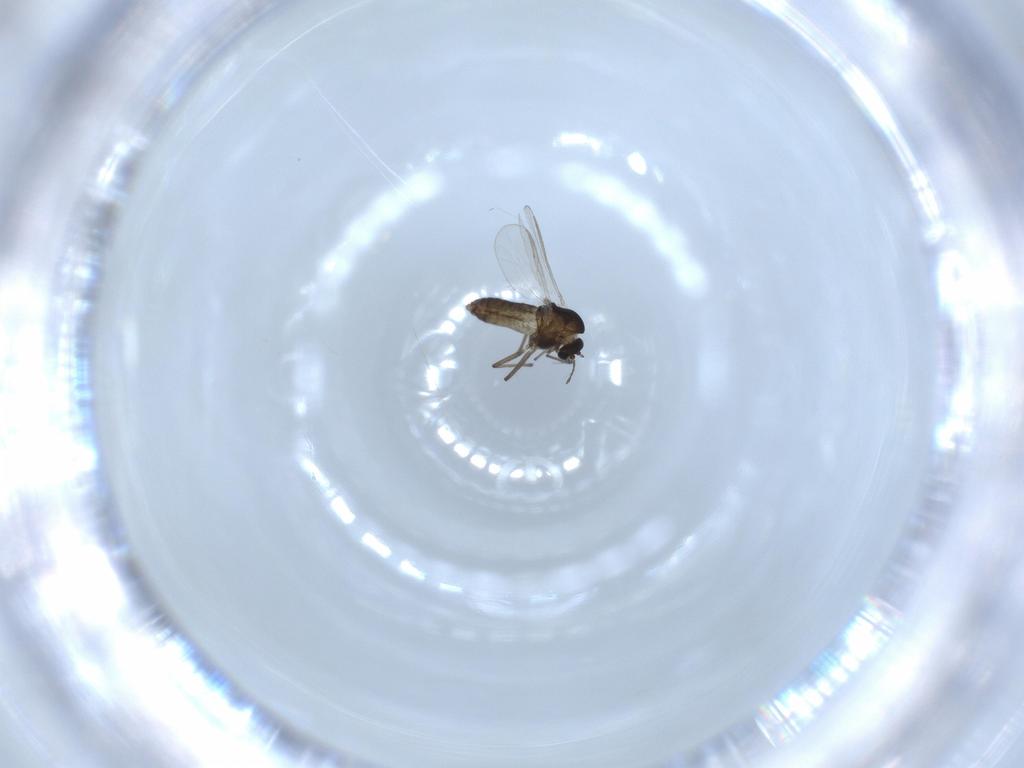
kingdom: Animalia
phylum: Arthropoda
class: Insecta
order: Diptera
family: Chironomidae
